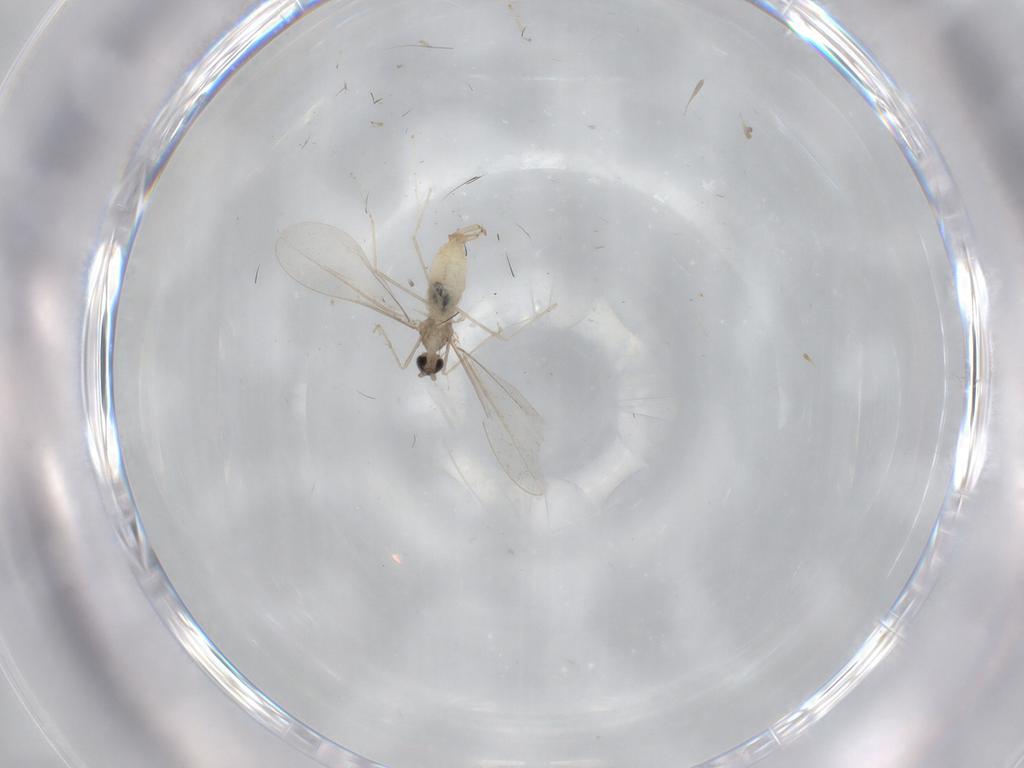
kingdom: Animalia
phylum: Arthropoda
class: Insecta
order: Diptera
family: Cecidomyiidae
